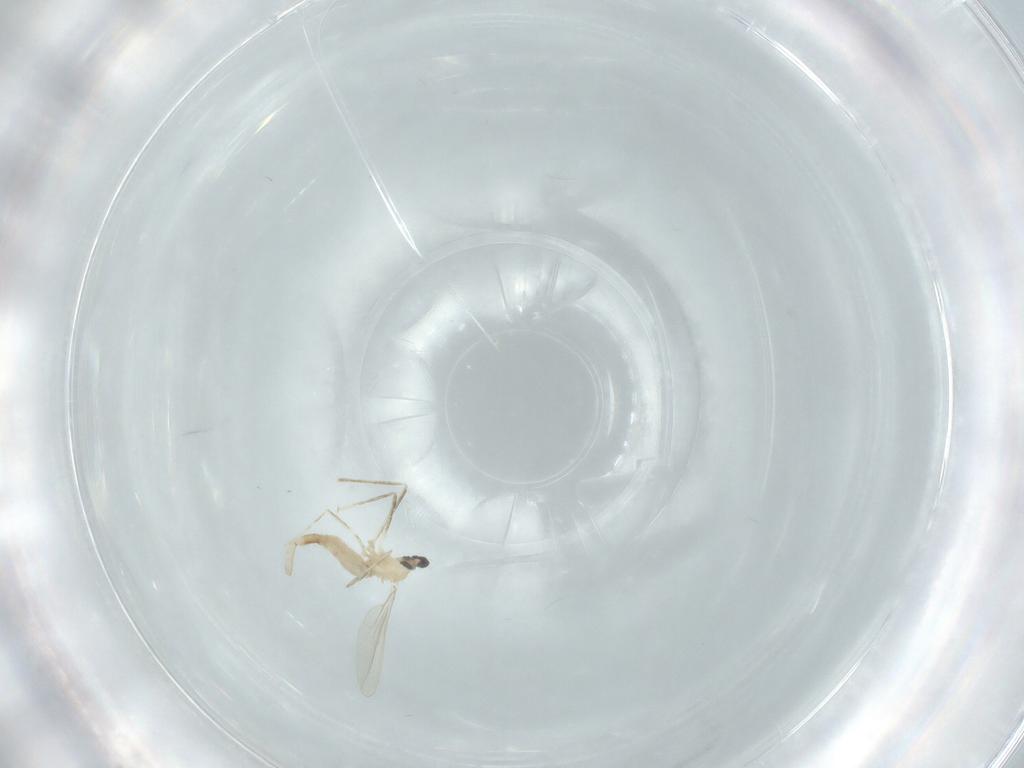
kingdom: Animalia
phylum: Arthropoda
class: Insecta
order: Diptera
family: Cecidomyiidae
